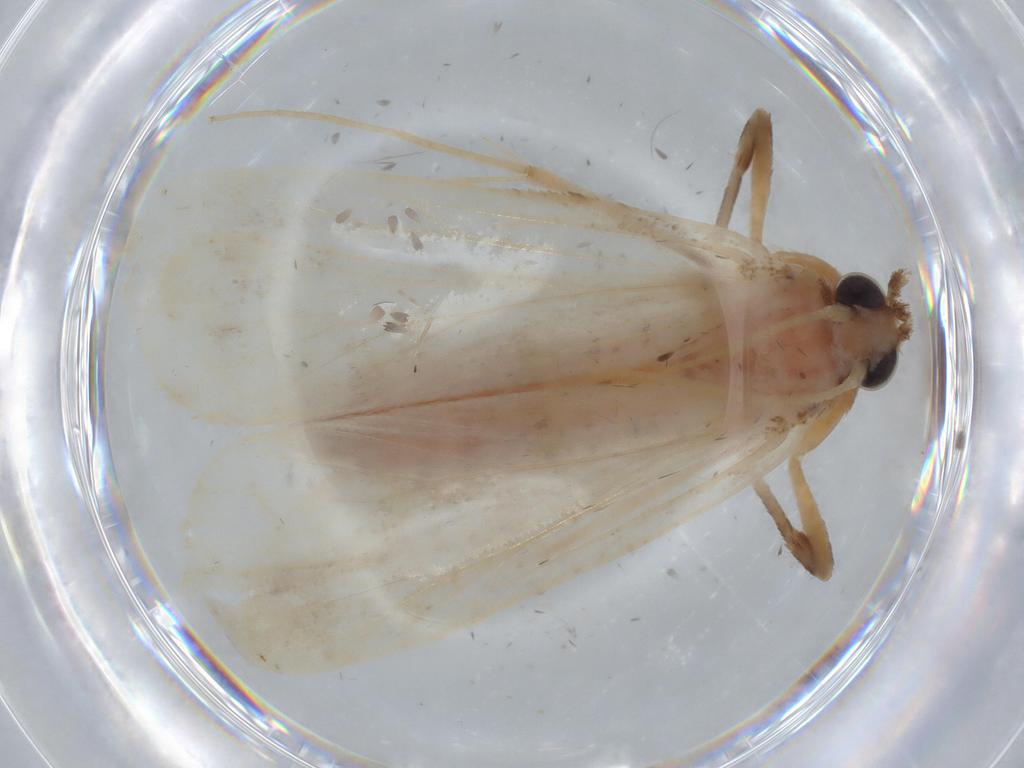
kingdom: Animalia
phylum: Arthropoda
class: Insecta
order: Lepidoptera
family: Crambidae
